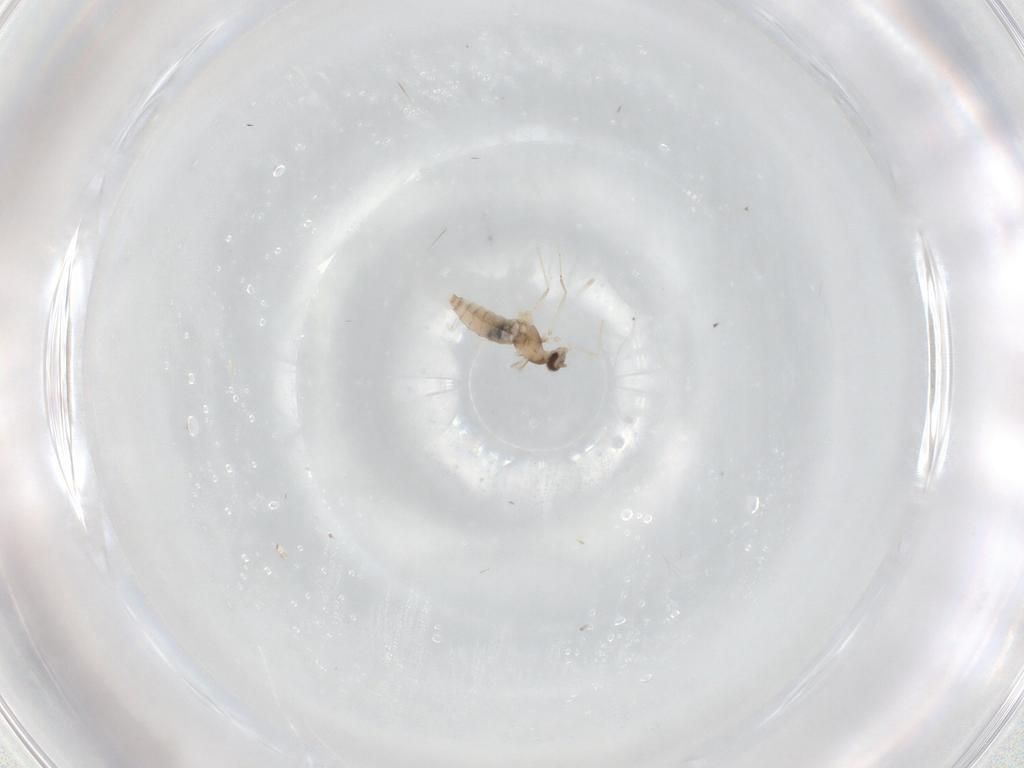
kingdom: Animalia
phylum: Arthropoda
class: Insecta
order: Diptera
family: Cecidomyiidae
